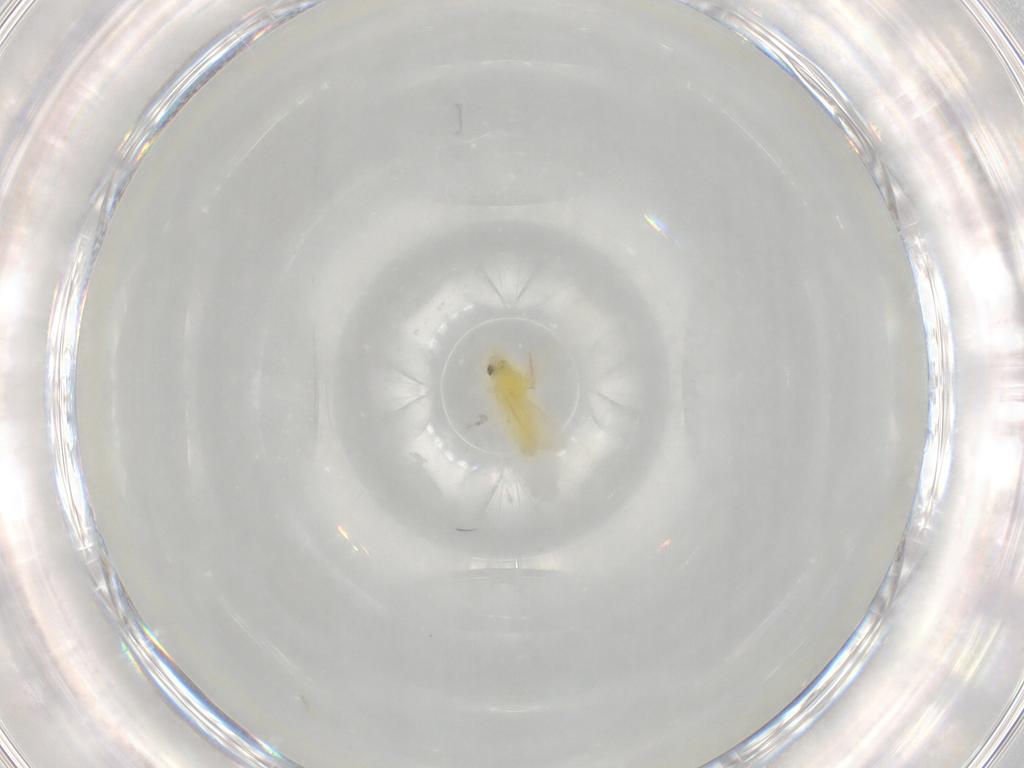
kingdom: Animalia
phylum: Arthropoda
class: Insecta
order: Hemiptera
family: Aleyrodidae
